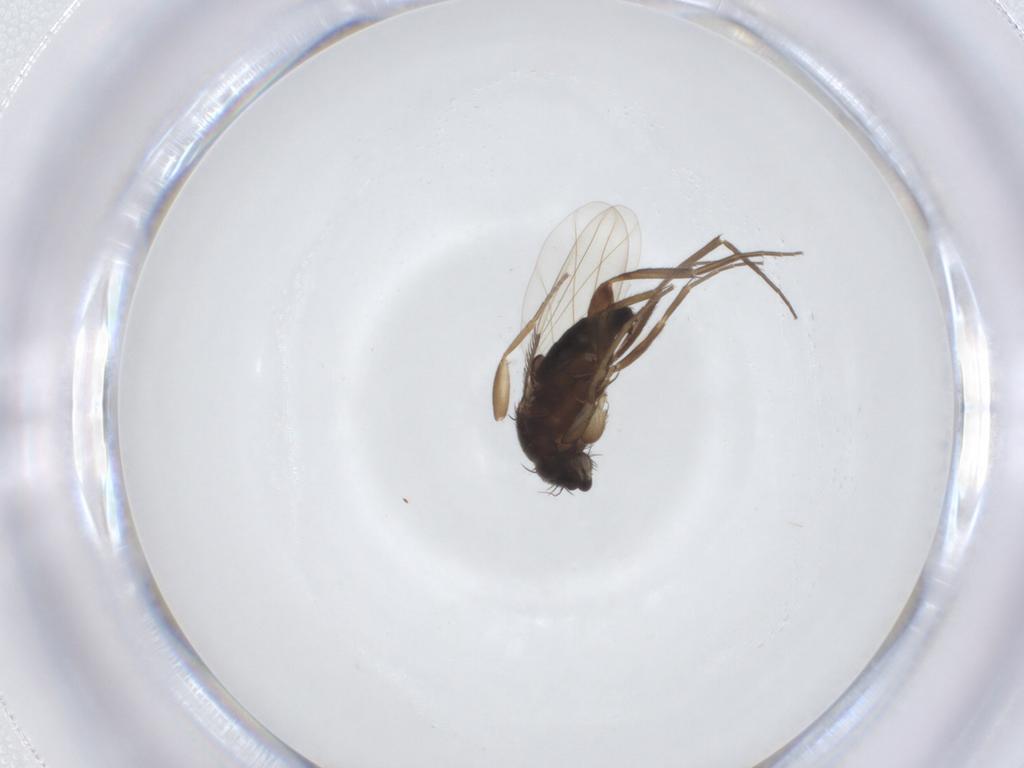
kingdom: Animalia
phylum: Arthropoda
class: Insecta
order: Diptera
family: Phoridae
